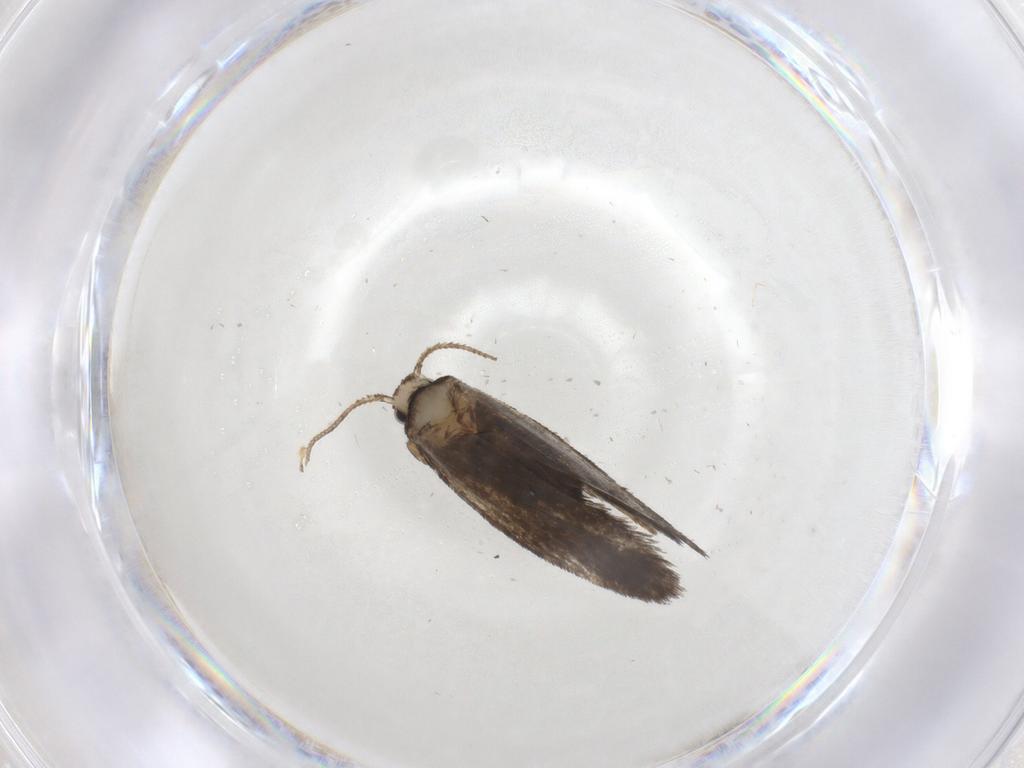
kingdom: Animalia
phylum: Arthropoda
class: Insecta
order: Lepidoptera
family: Psychidae
